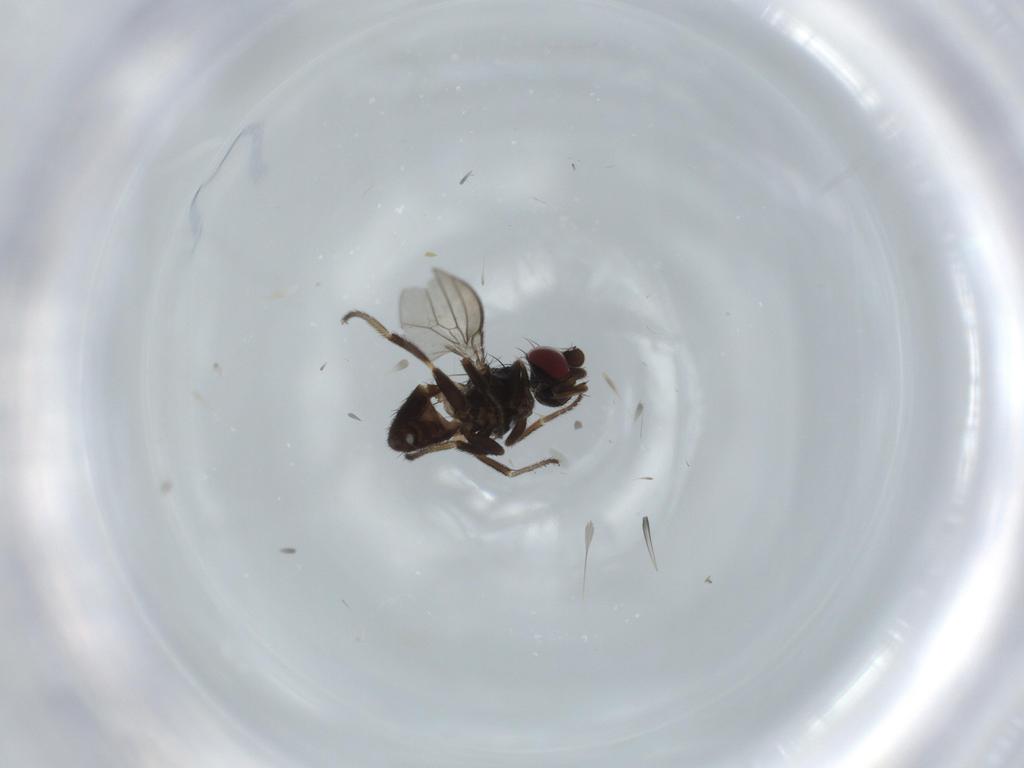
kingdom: Animalia
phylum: Arthropoda
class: Insecta
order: Diptera
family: Milichiidae
